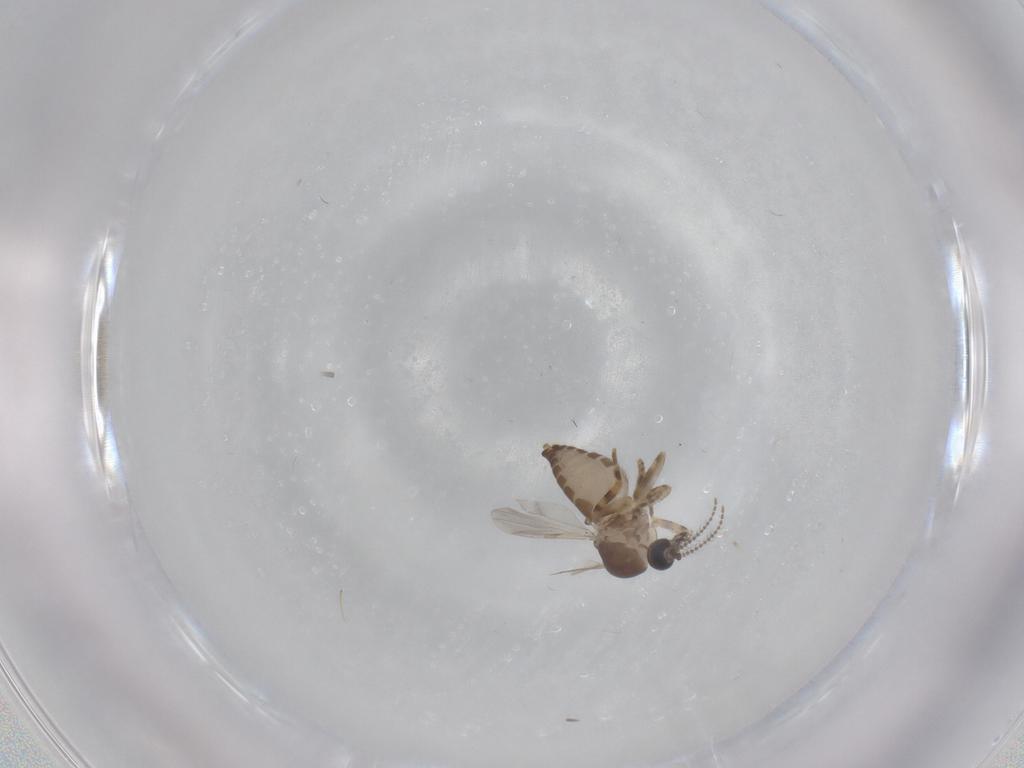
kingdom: Animalia
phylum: Arthropoda
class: Insecta
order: Diptera
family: Ceratopogonidae
